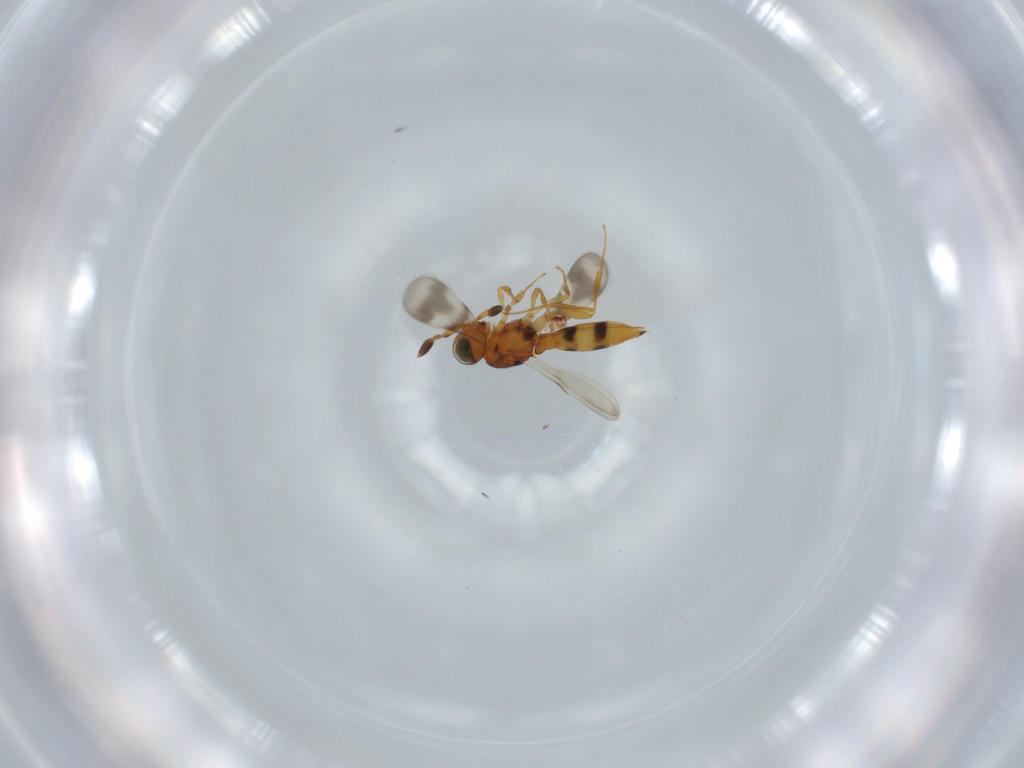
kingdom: Animalia
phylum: Arthropoda
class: Insecta
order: Hymenoptera
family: Scelionidae
